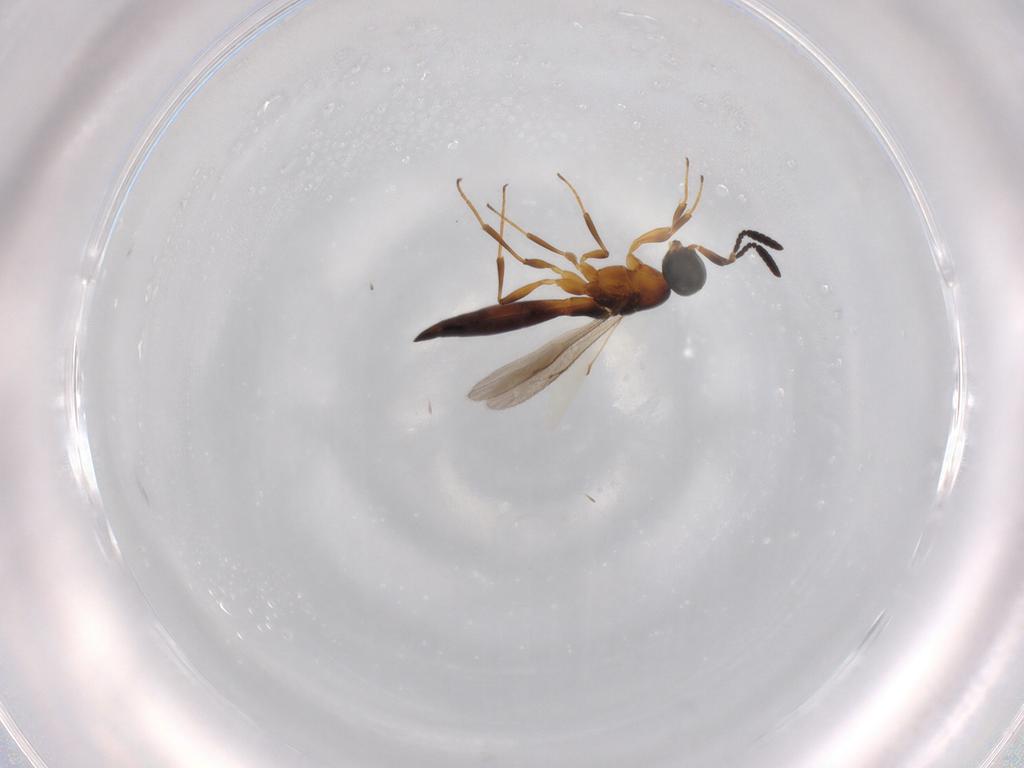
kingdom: Animalia
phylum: Arthropoda
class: Insecta
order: Hymenoptera
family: Scelionidae
